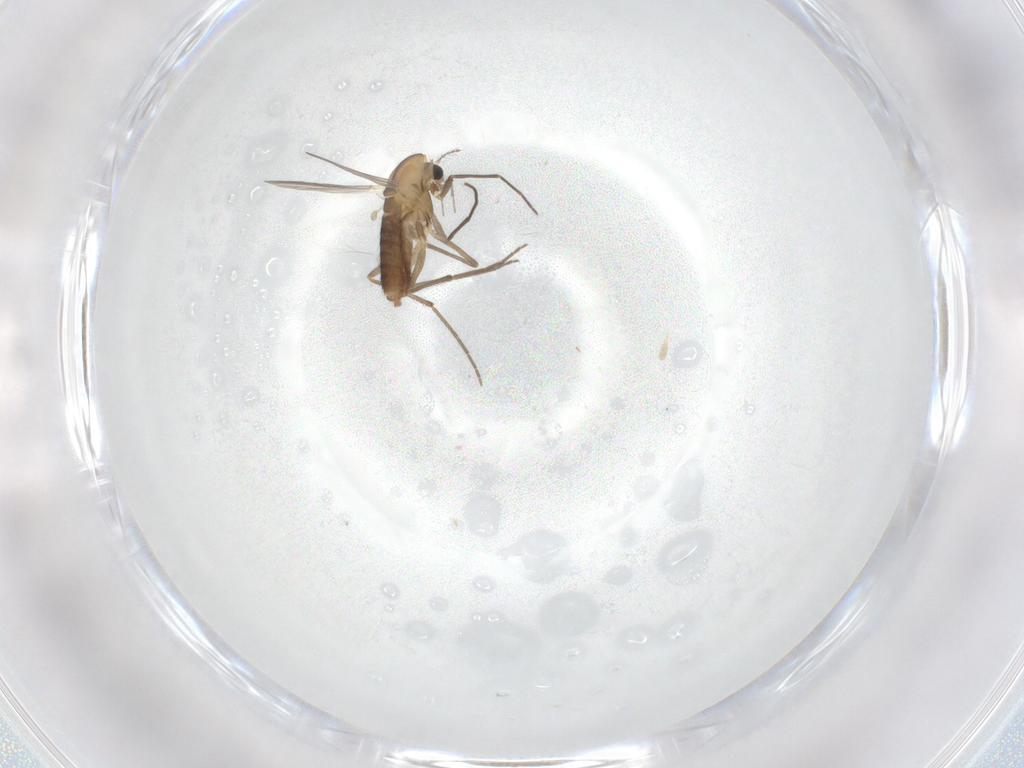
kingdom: Animalia
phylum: Arthropoda
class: Insecta
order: Diptera
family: Chironomidae
